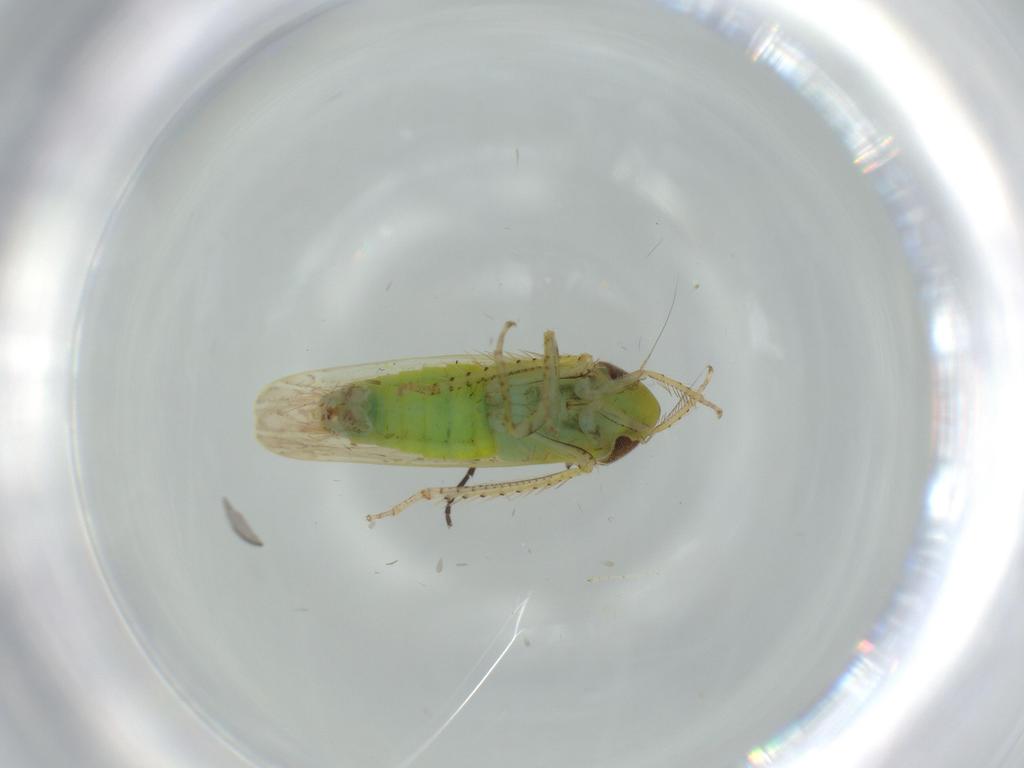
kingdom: Animalia
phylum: Arthropoda
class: Insecta
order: Hemiptera
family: Cicadellidae
